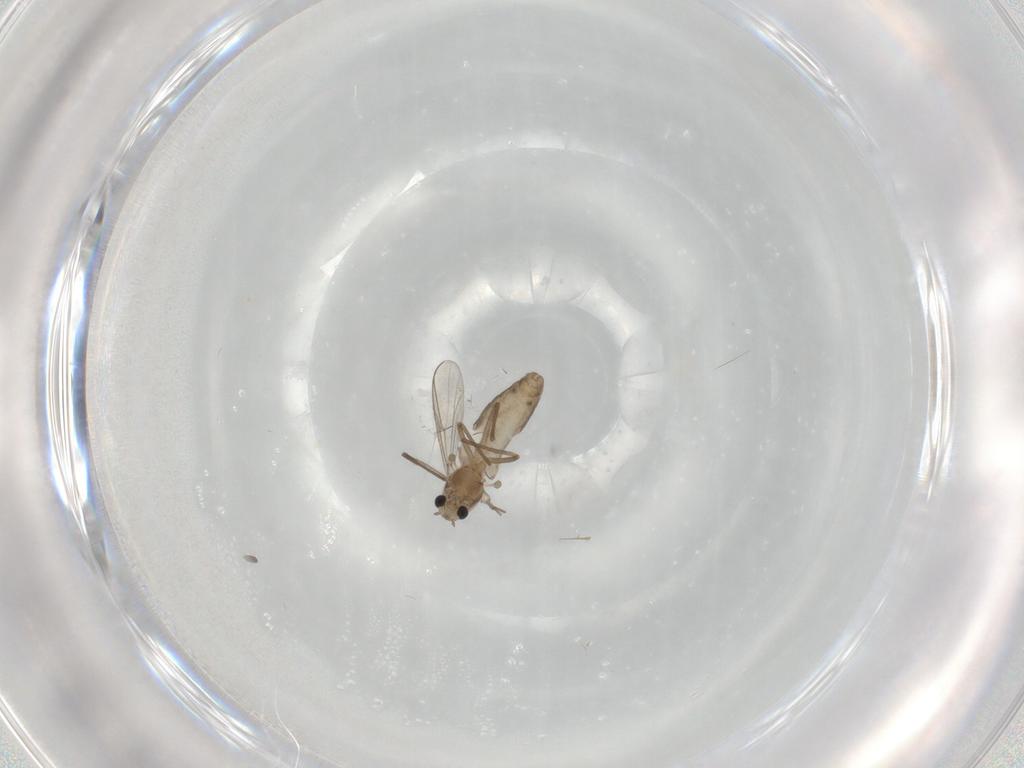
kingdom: Animalia
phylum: Arthropoda
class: Insecta
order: Diptera
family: Chironomidae
